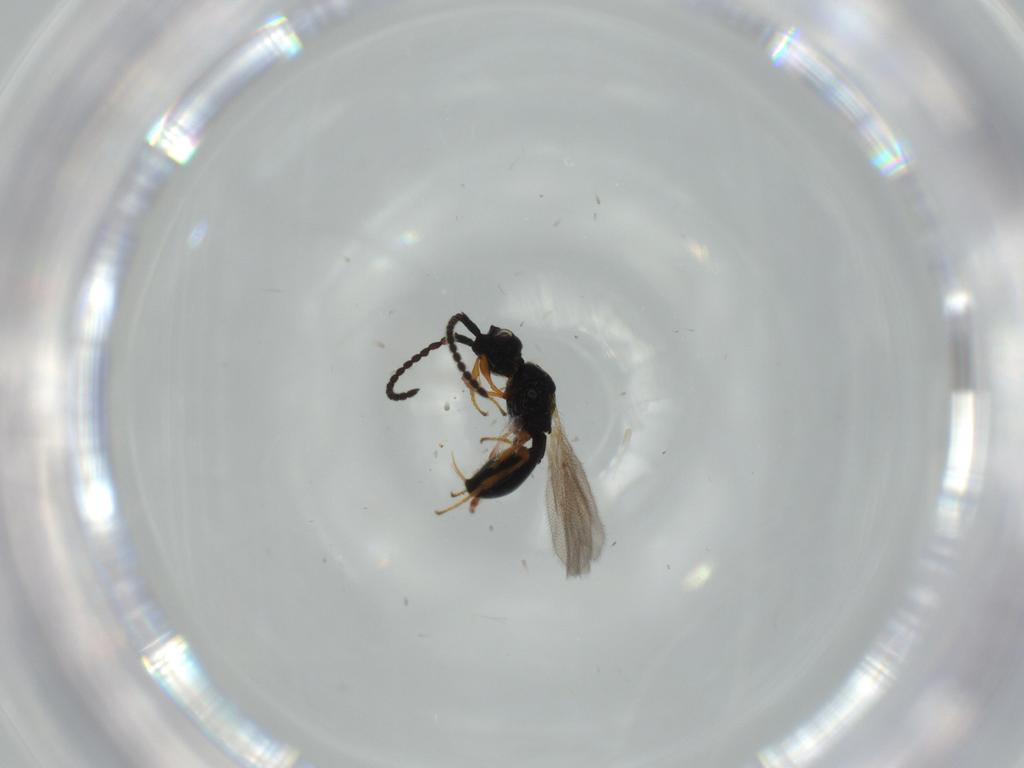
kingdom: Animalia
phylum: Arthropoda
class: Insecta
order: Hymenoptera
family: Diapriidae
